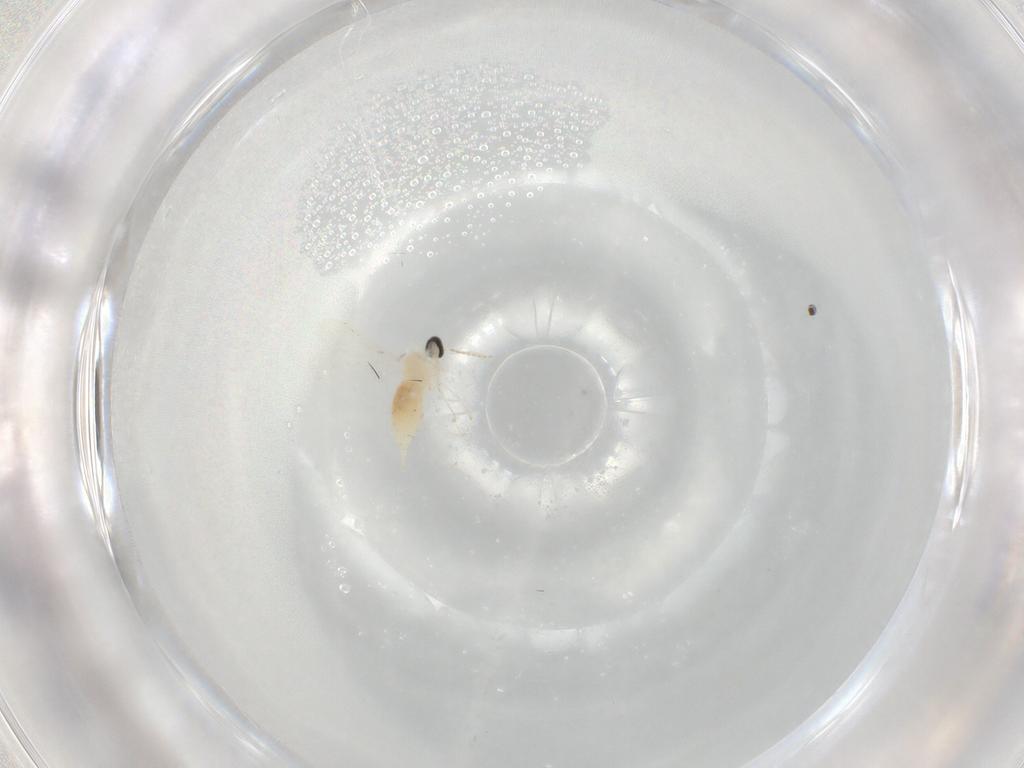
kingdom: Animalia
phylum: Arthropoda
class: Insecta
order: Diptera
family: Cecidomyiidae
